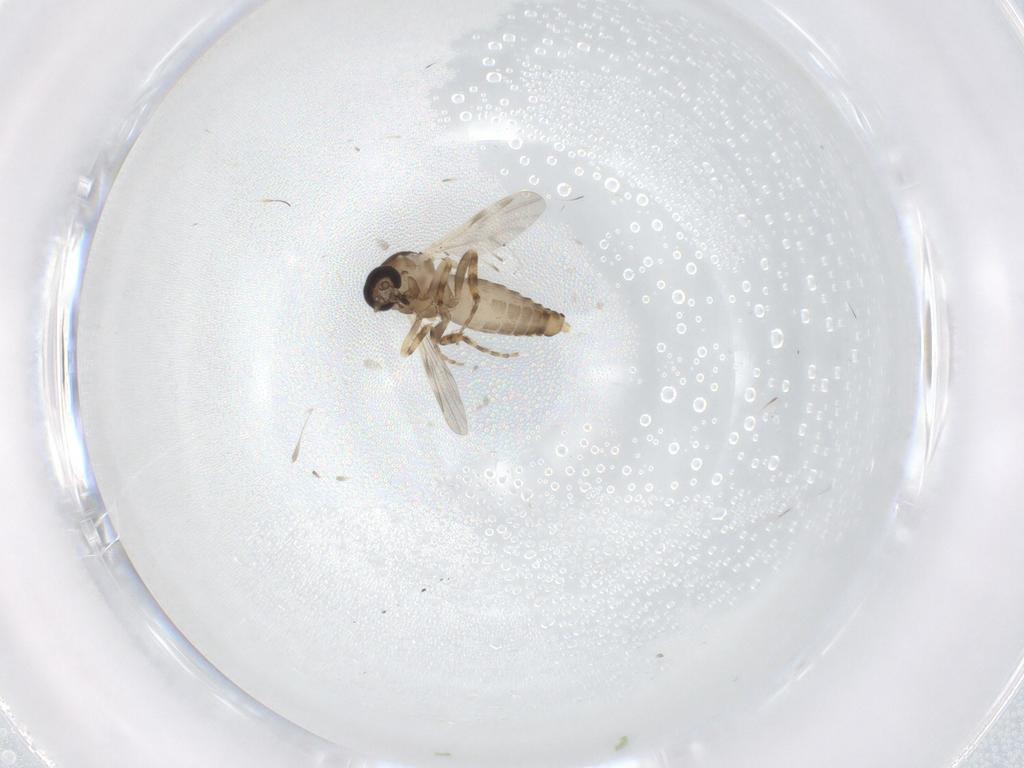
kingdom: Animalia
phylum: Arthropoda
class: Insecta
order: Diptera
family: Ceratopogonidae
